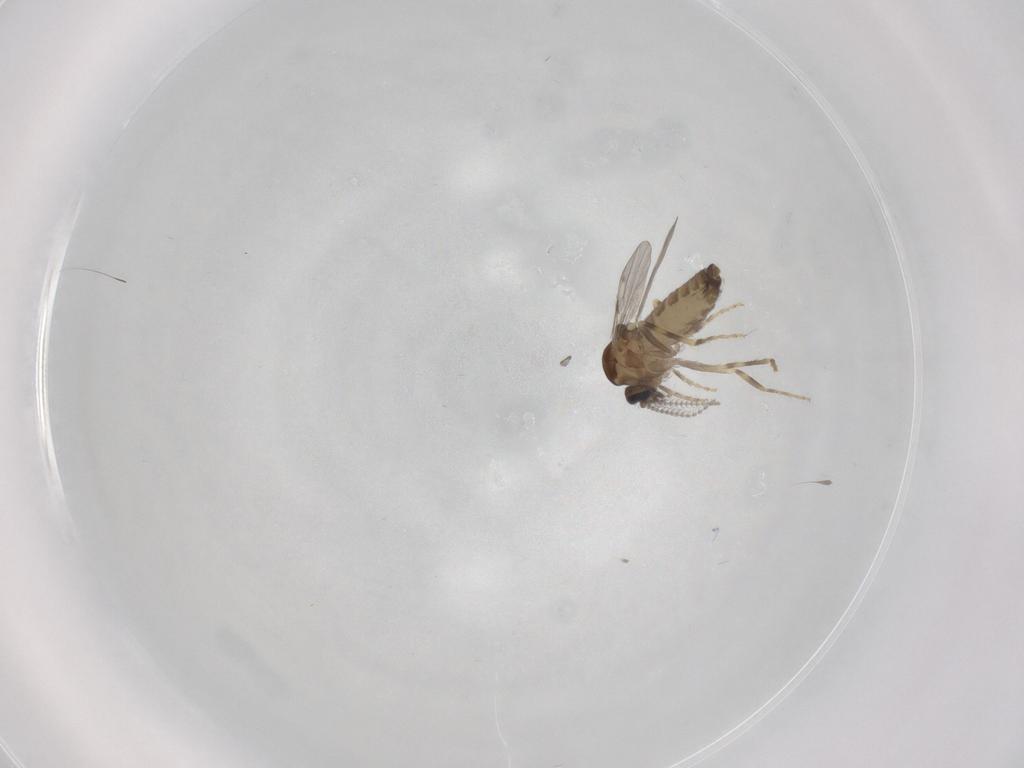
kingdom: Animalia
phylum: Arthropoda
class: Insecta
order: Diptera
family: Ceratopogonidae
